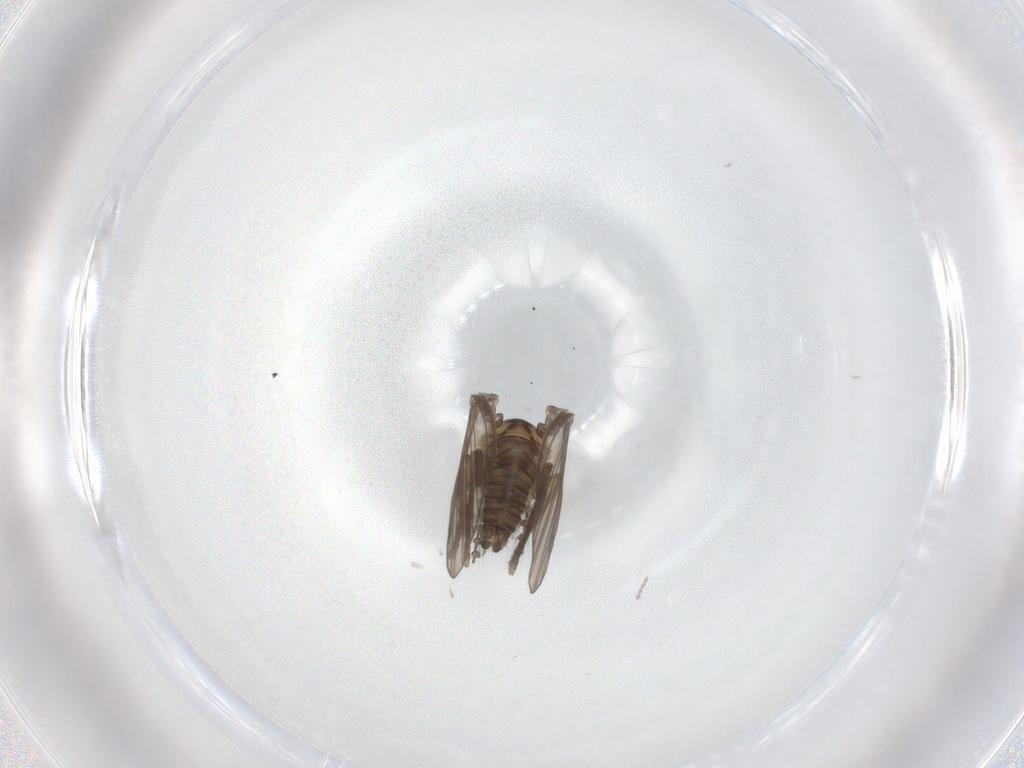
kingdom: Animalia
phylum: Arthropoda
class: Insecta
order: Diptera
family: Psychodidae
